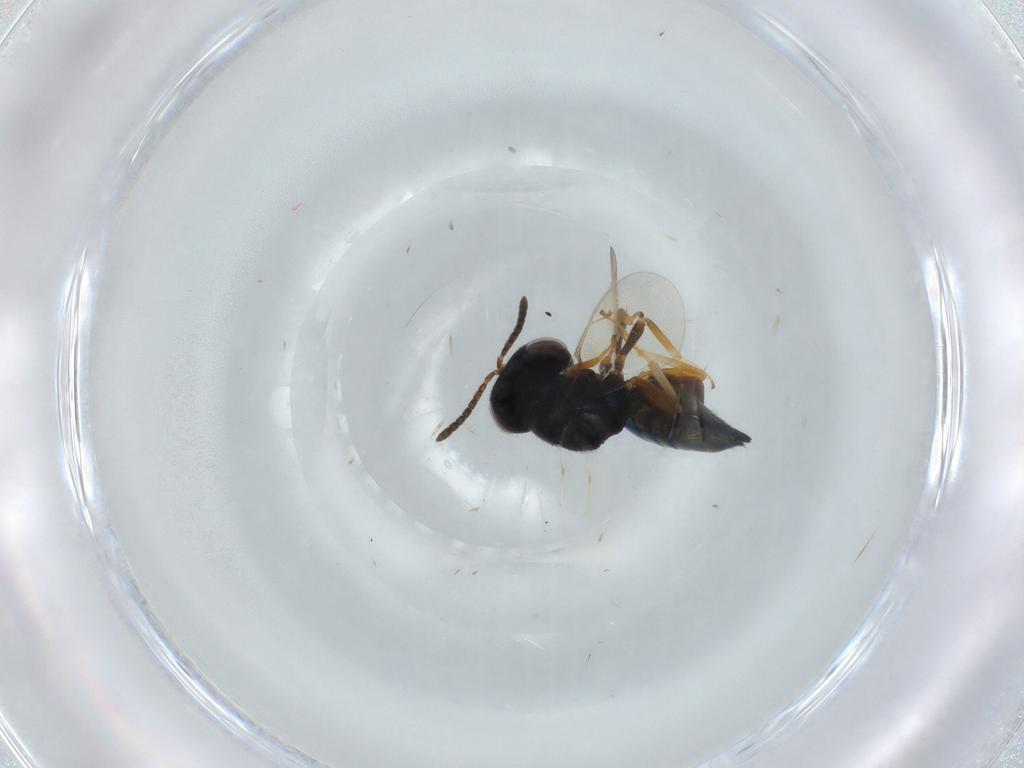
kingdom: Animalia
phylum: Arthropoda
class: Insecta
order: Hymenoptera
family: Pteromalidae
